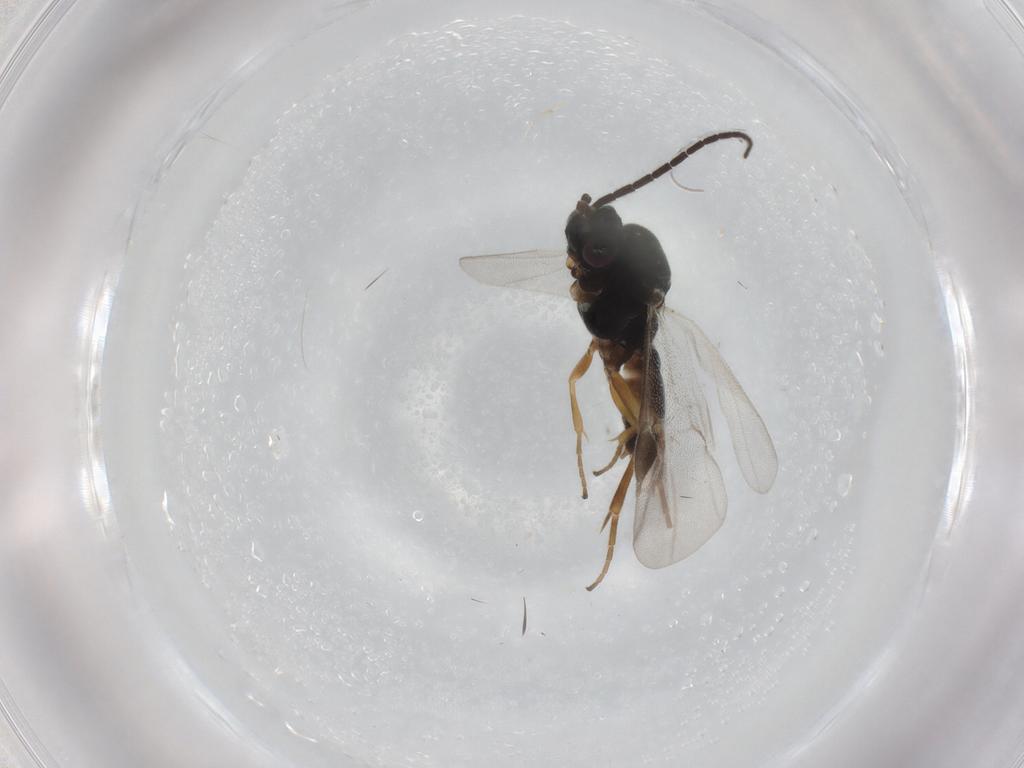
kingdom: Animalia
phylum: Arthropoda
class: Insecta
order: Hymenoptera
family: Braconidae
